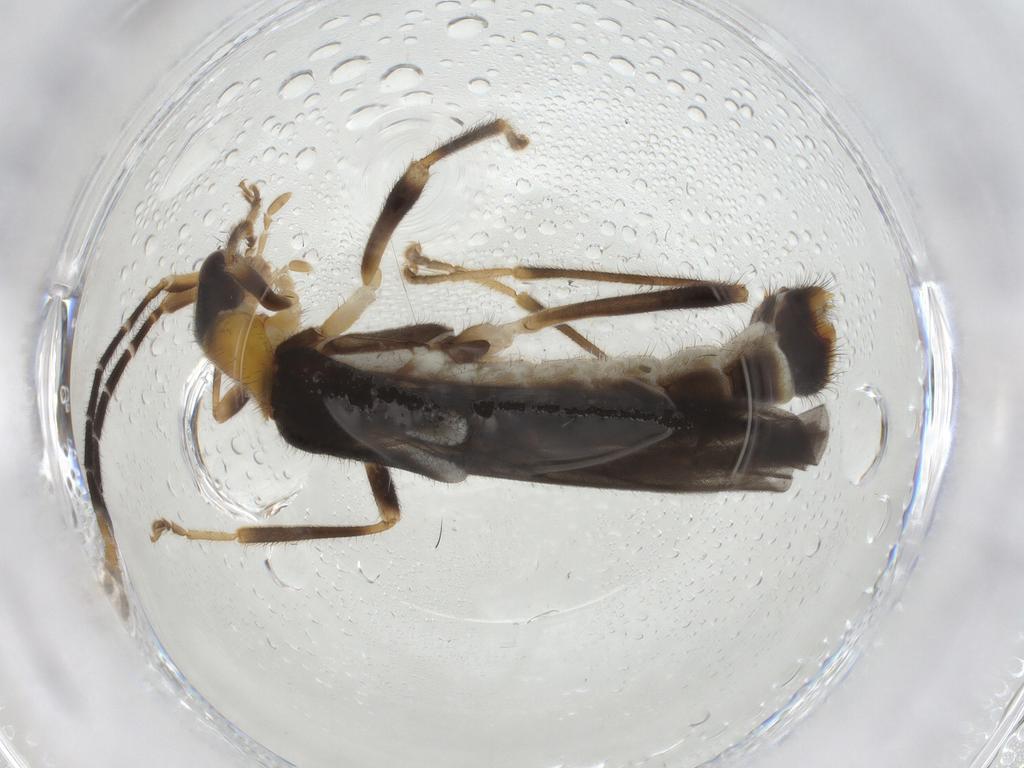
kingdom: Animalia
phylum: Arthropoda
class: Insecta
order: Coleoptera
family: Cantharidae
